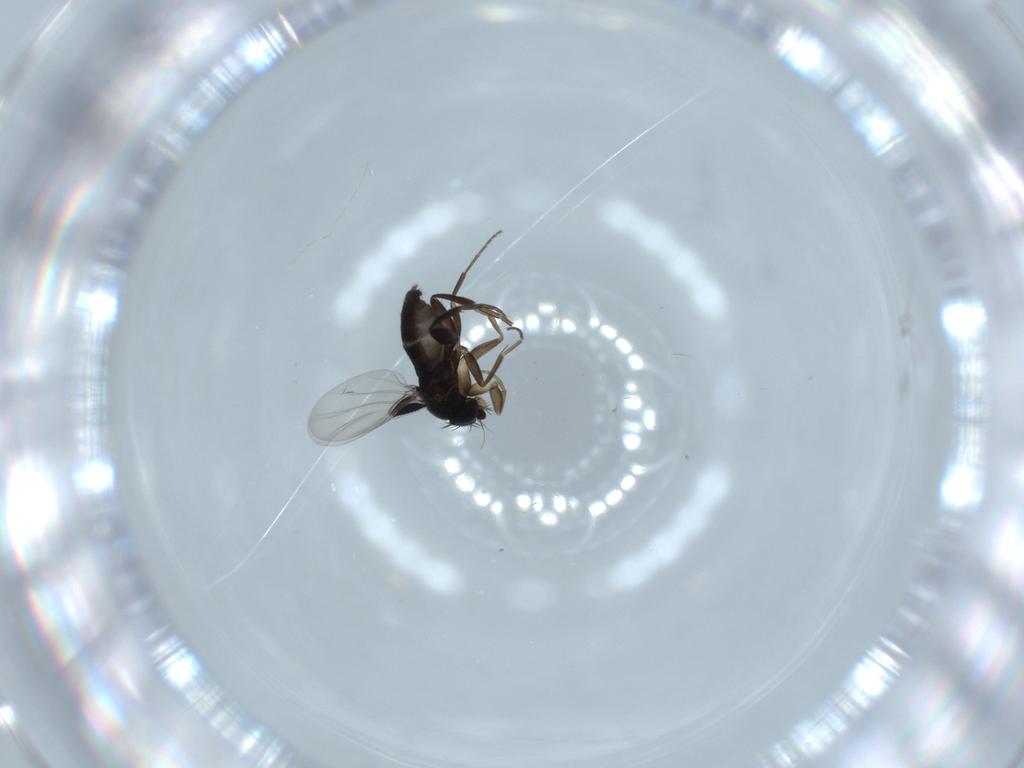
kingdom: Animalia
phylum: Arthropoda
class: Insecta
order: Diptera
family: Phoridae
